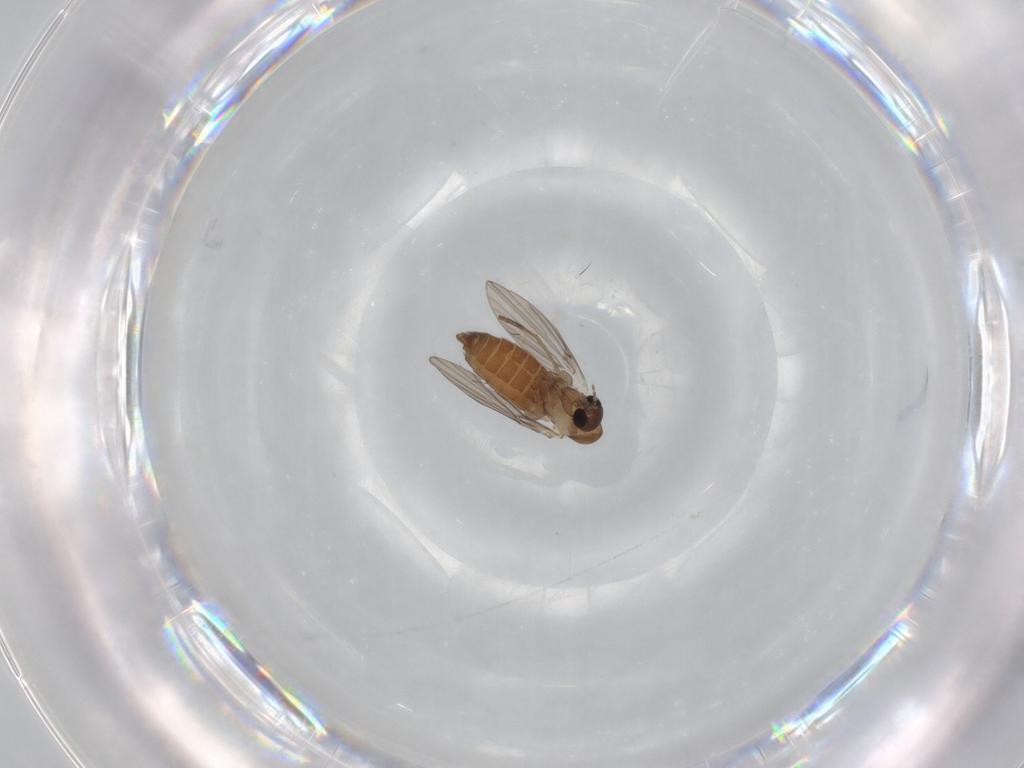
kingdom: Animalia
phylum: Arthropoda
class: Insecta
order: Diptera
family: Psychodidae
